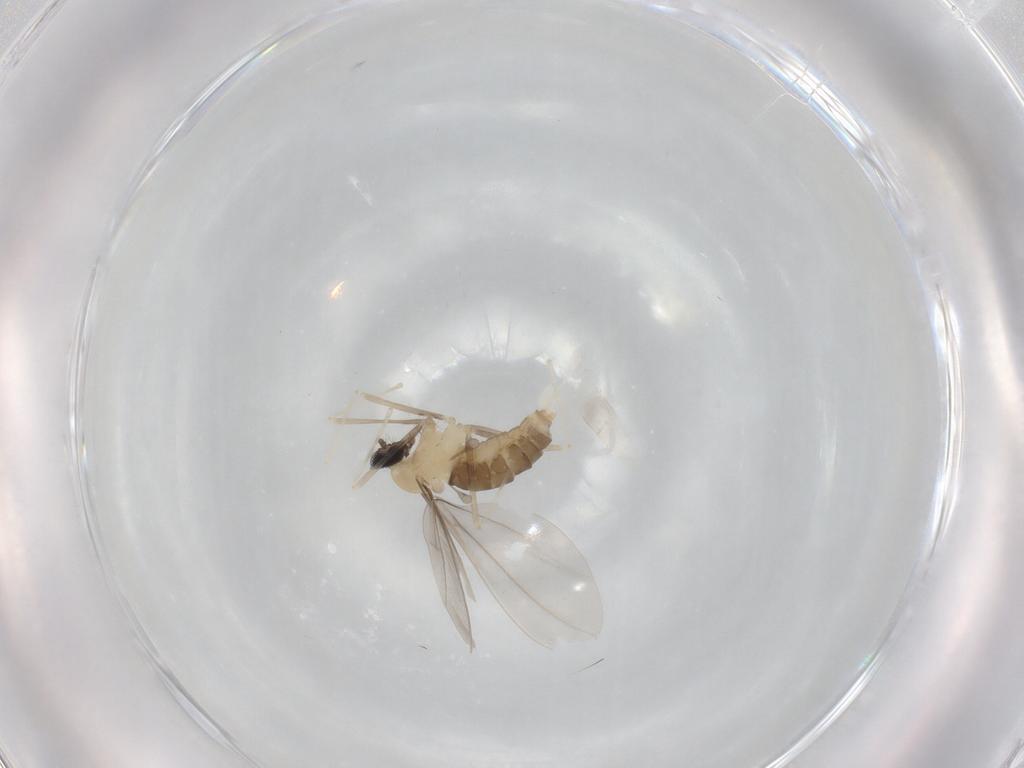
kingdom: Animalia
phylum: Arthropoda
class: Insecta
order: Diptera
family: Cecidomyiidae
